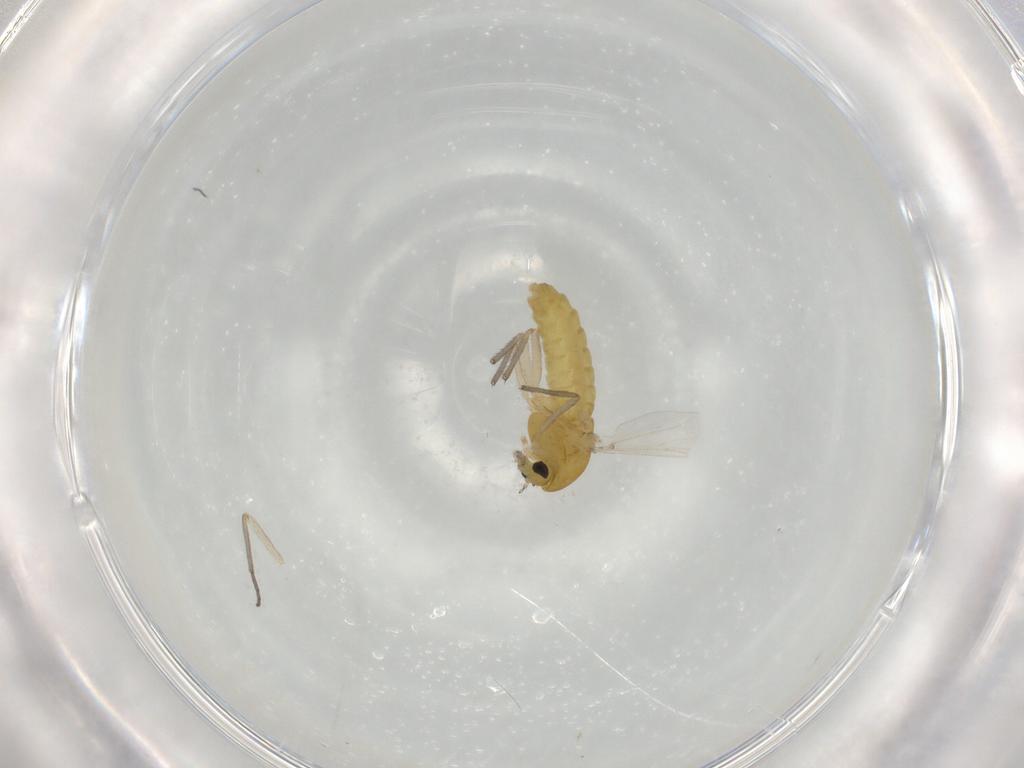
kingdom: Animalia
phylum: Arthropoda
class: Insecta
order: Diptera
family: Chironomidae
